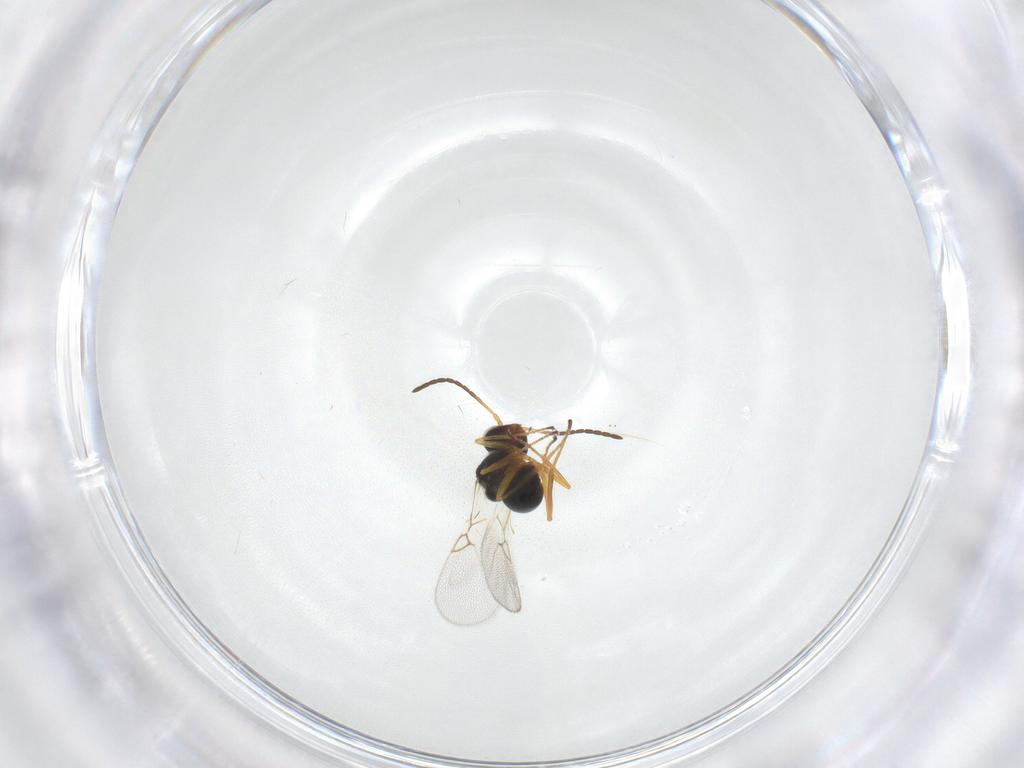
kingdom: Animalia
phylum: Arthropoda
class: Insecta
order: Hymenoptera
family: Figitidae
